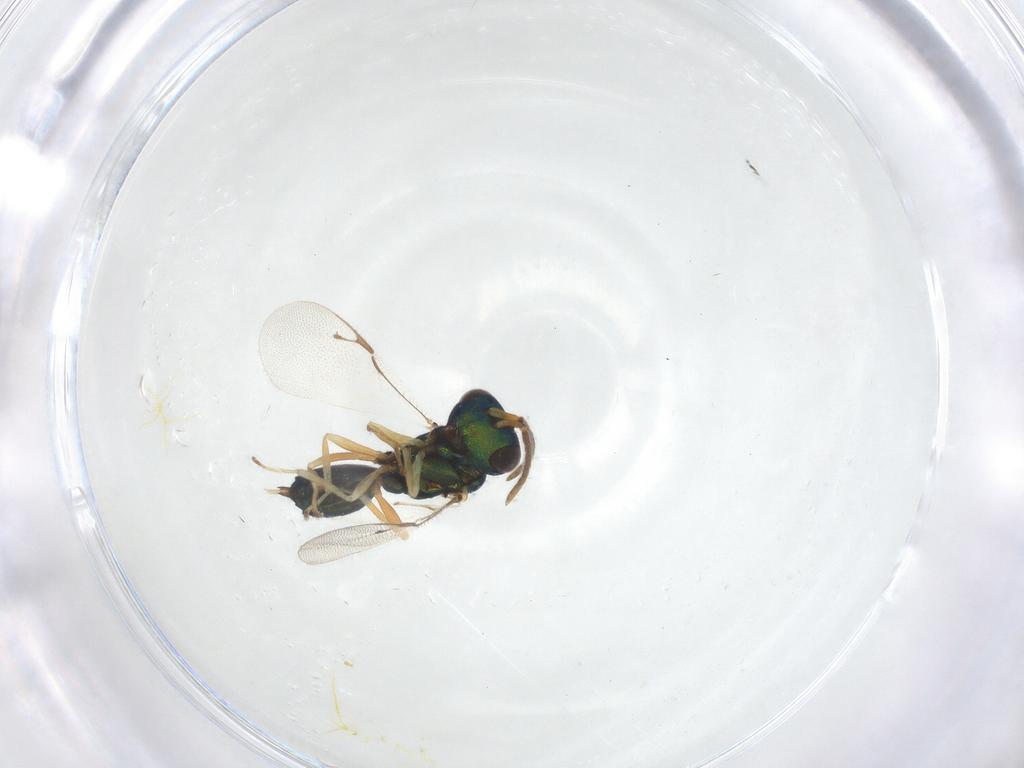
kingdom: Animalia
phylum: Arthropoda
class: Insecta
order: Hymenoptera
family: Pteromalidae
